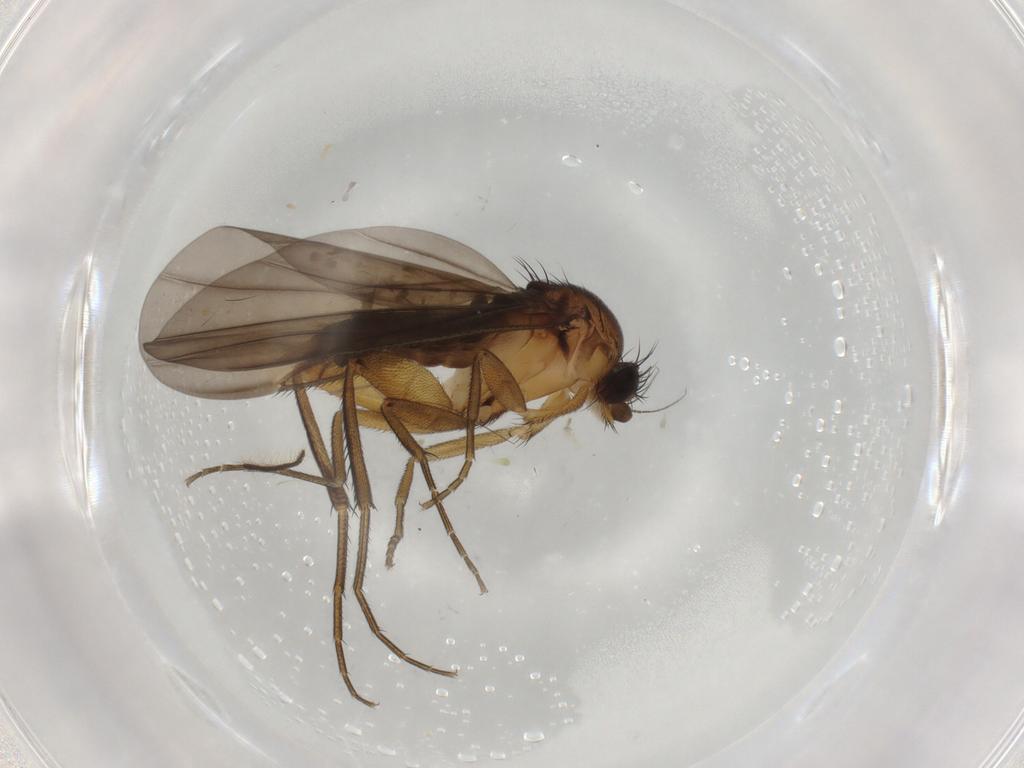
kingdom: Animalia
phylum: Arthropoda
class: Insecta
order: Diptera
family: Phoridae
